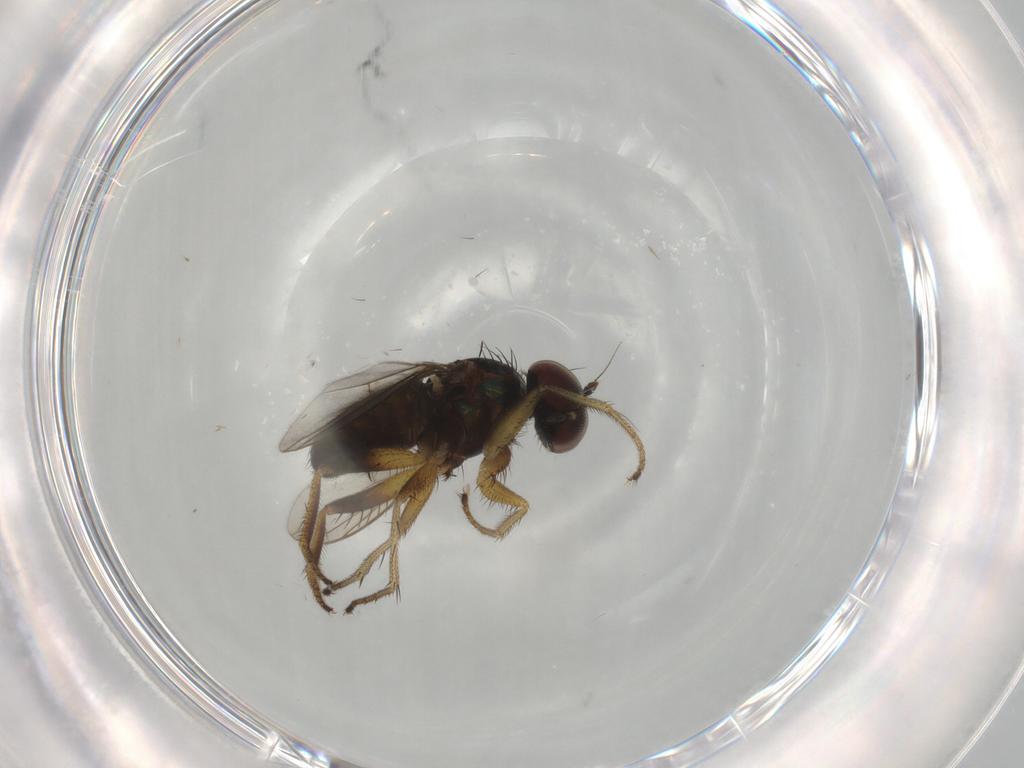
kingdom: Animalia
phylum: Arthropoda
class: Insecta
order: Diptera
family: Dolichopodidae
